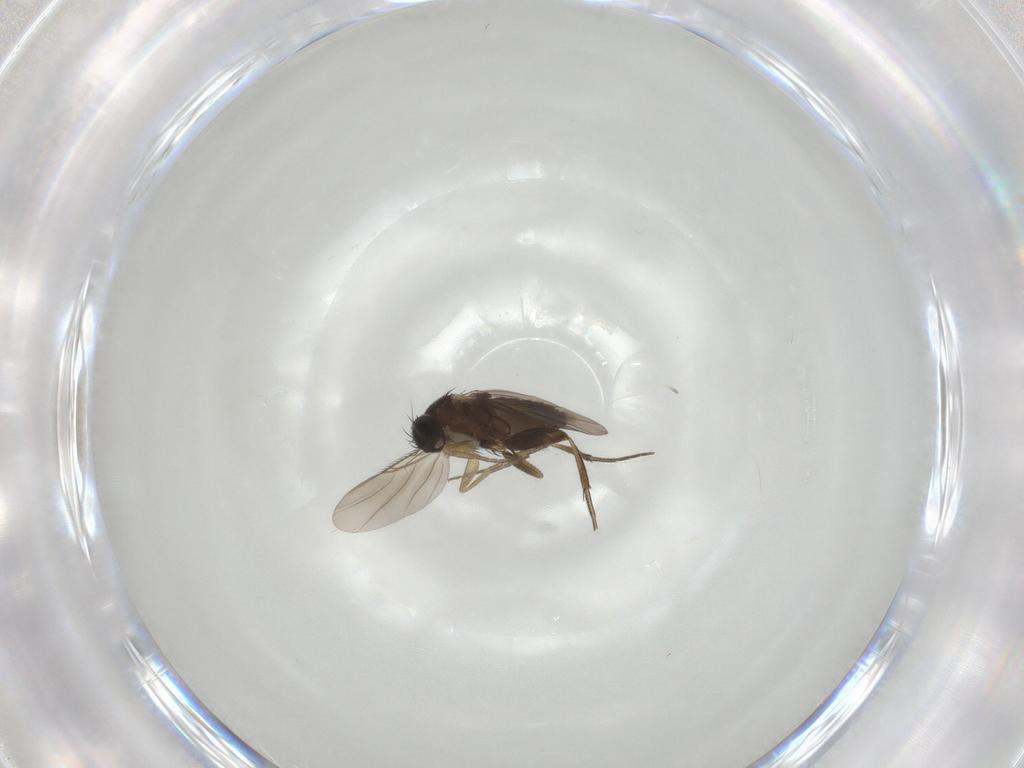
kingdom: Animalia
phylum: Arthropoda
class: Insecta
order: Diptera
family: Phoridae
